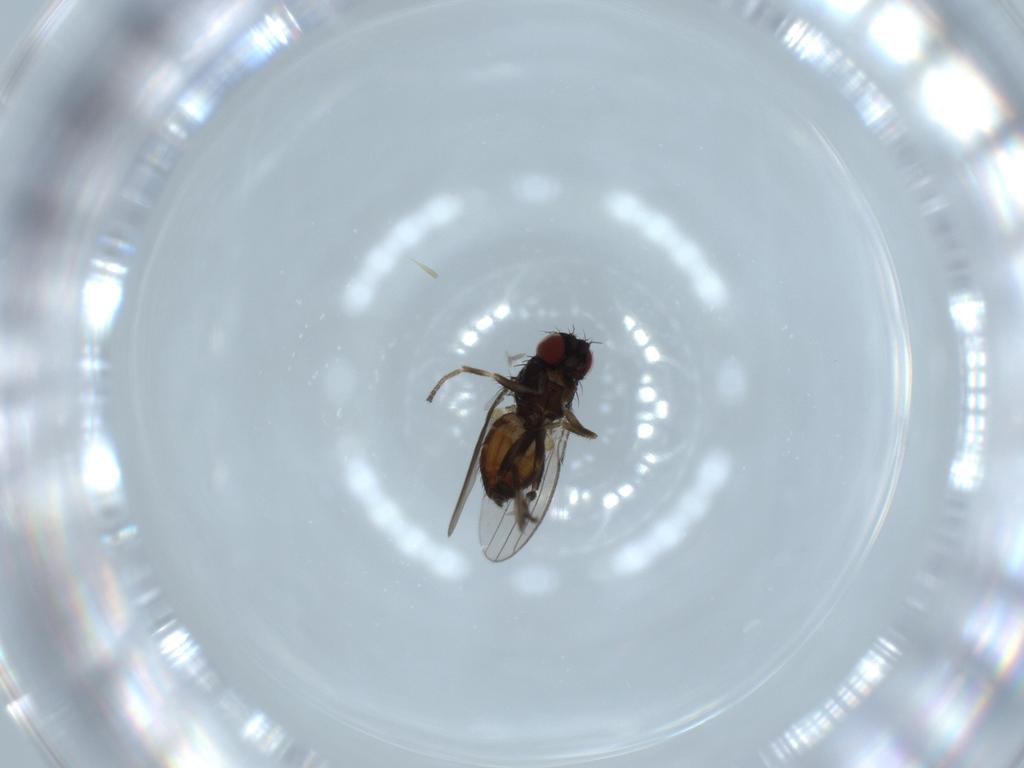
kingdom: Animalia
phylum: Arthropoda
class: Insecta
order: Diptera
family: Milichiidae
